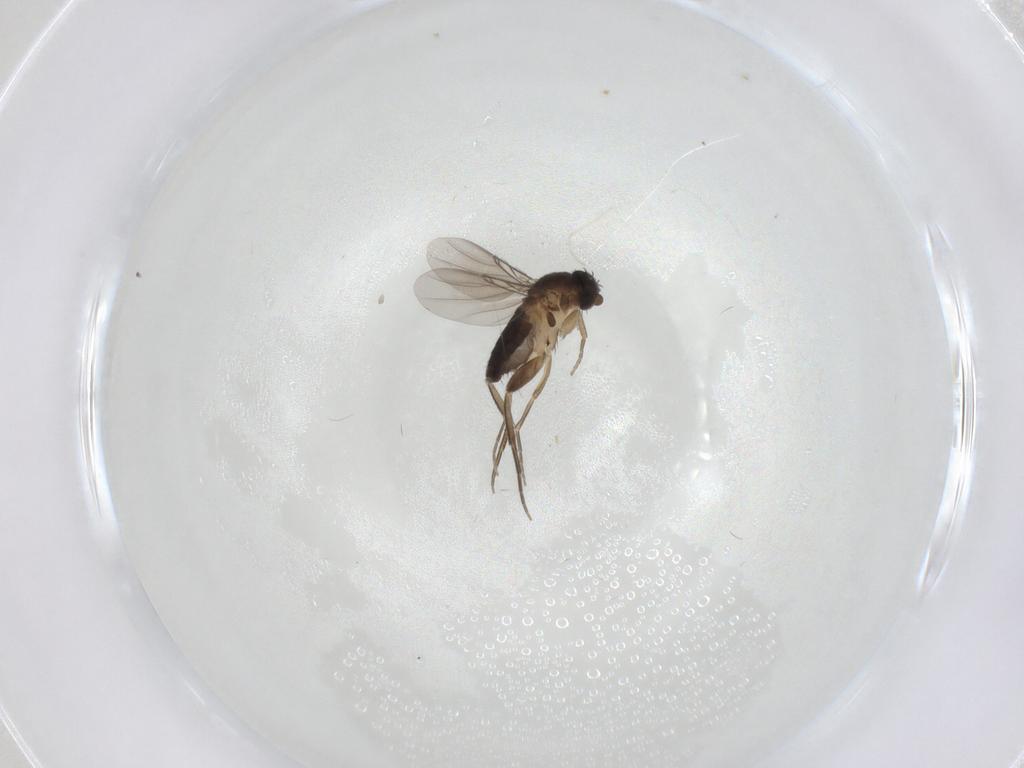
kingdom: Animalia
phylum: Arthropoda
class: Insecta
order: Diptera
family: Phoridae
